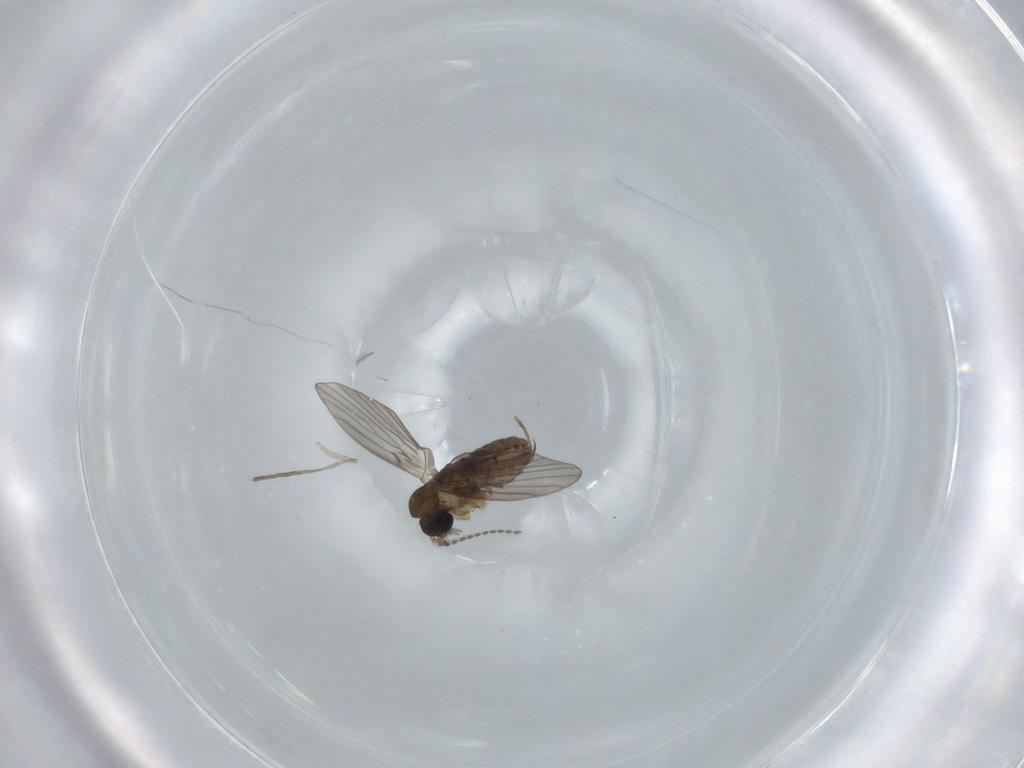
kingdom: Animalia
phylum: Arthropoda
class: Insecta
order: Diptera
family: Psychodidae
